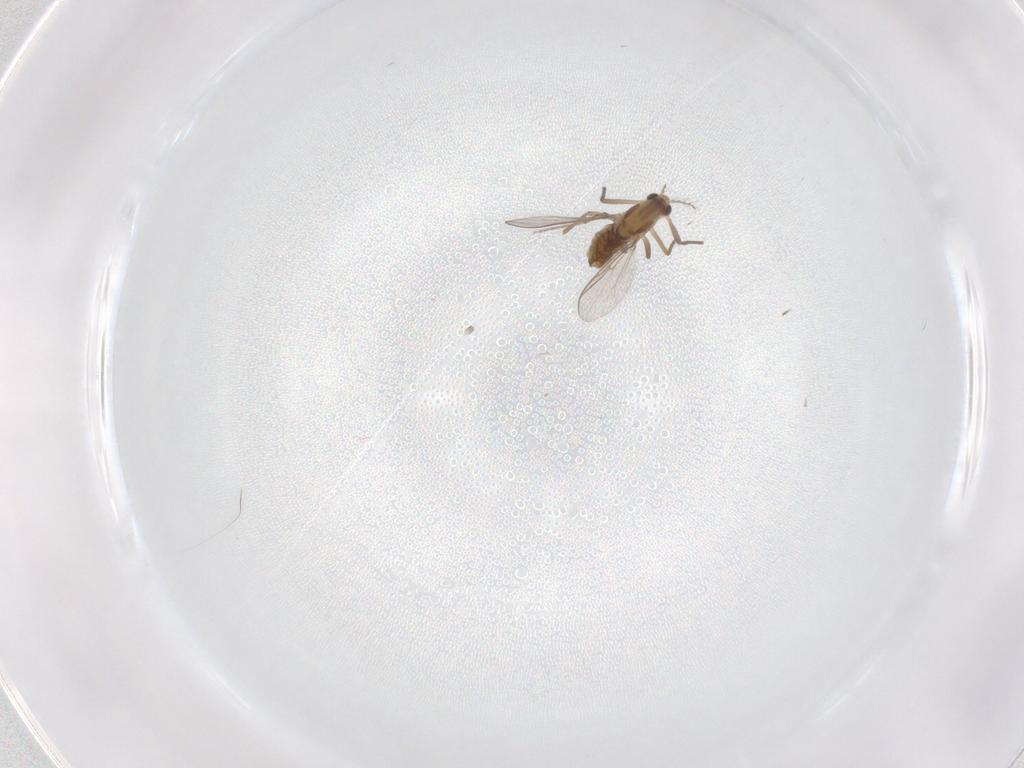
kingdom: Animalia
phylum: Arthropoda
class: Insecta
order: Diptera
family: Chironomidae
